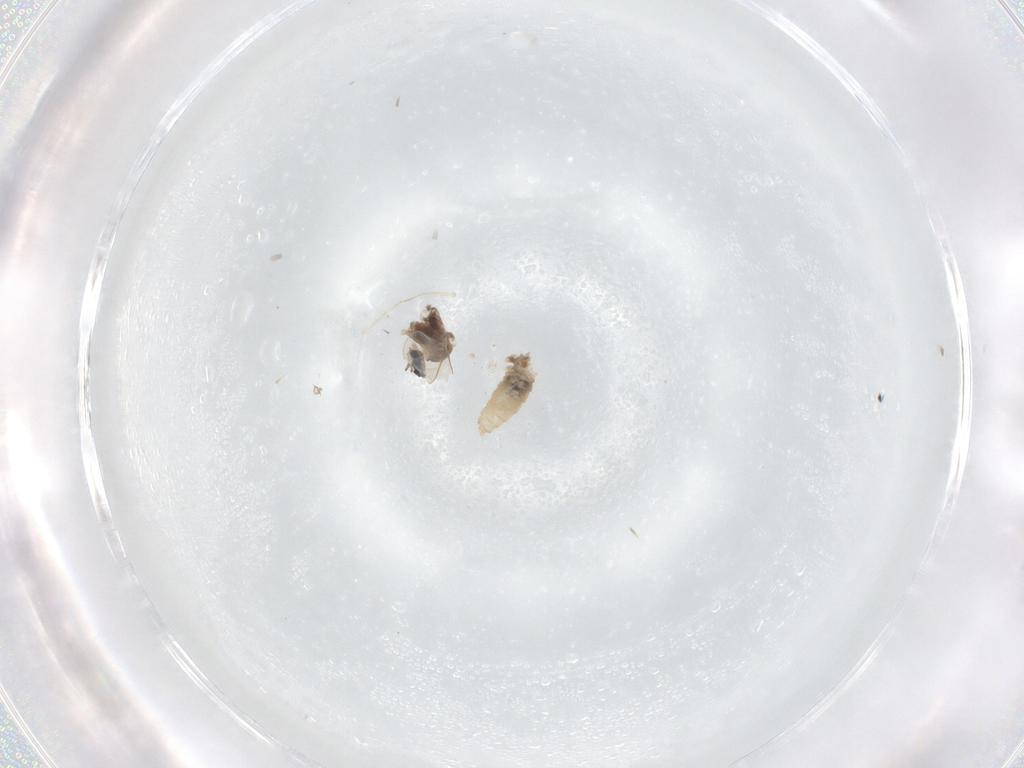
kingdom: Animalia
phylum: Arthropoda
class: Insecta
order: Diptera
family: Cecidomyiidae
